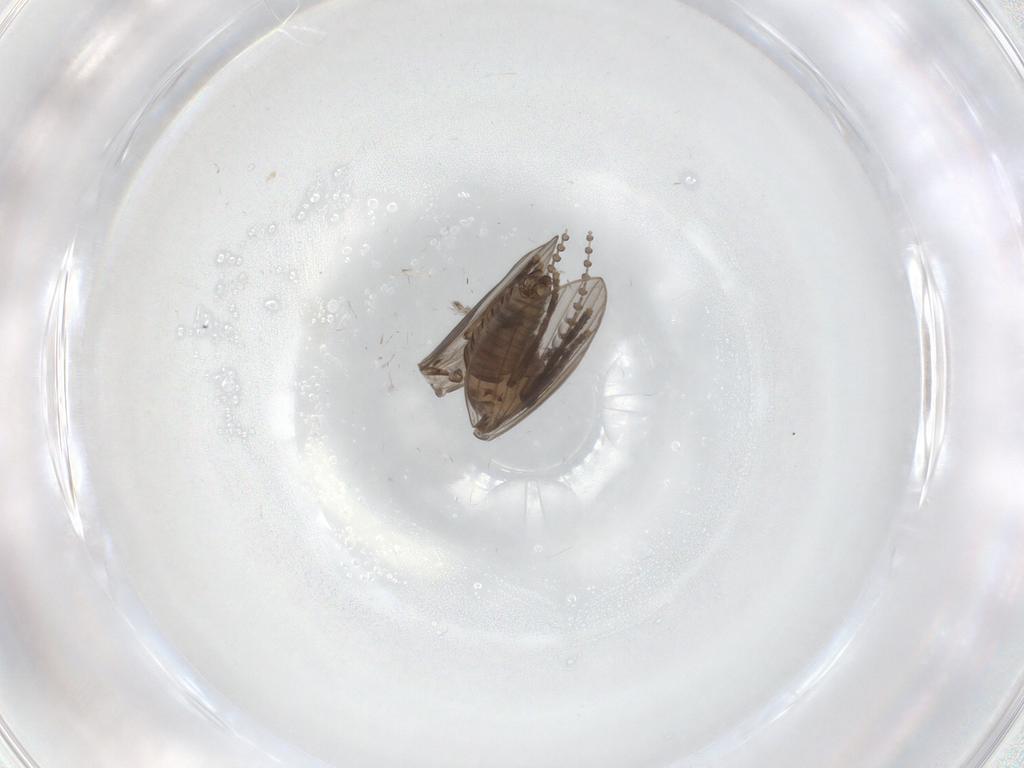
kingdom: Animalia
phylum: Arthropoda
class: Insecta
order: Diptera
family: Psychodidae
